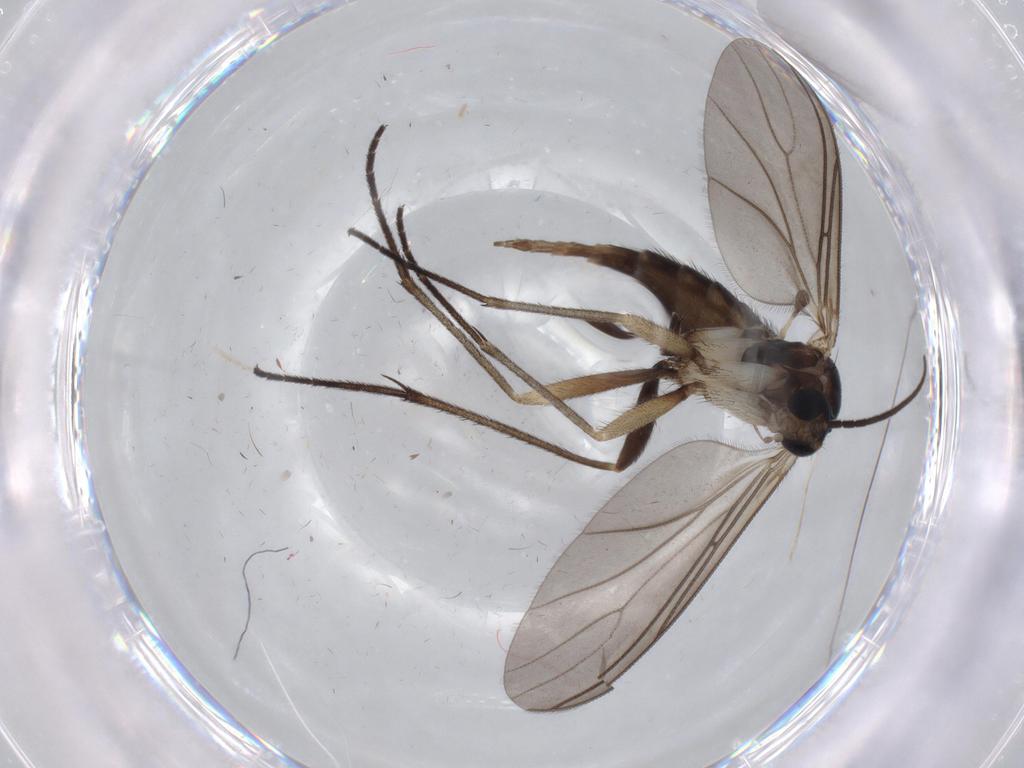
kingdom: Animalia
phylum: Arthropoda
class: Insecta
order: Diptera
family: Sciaridae
